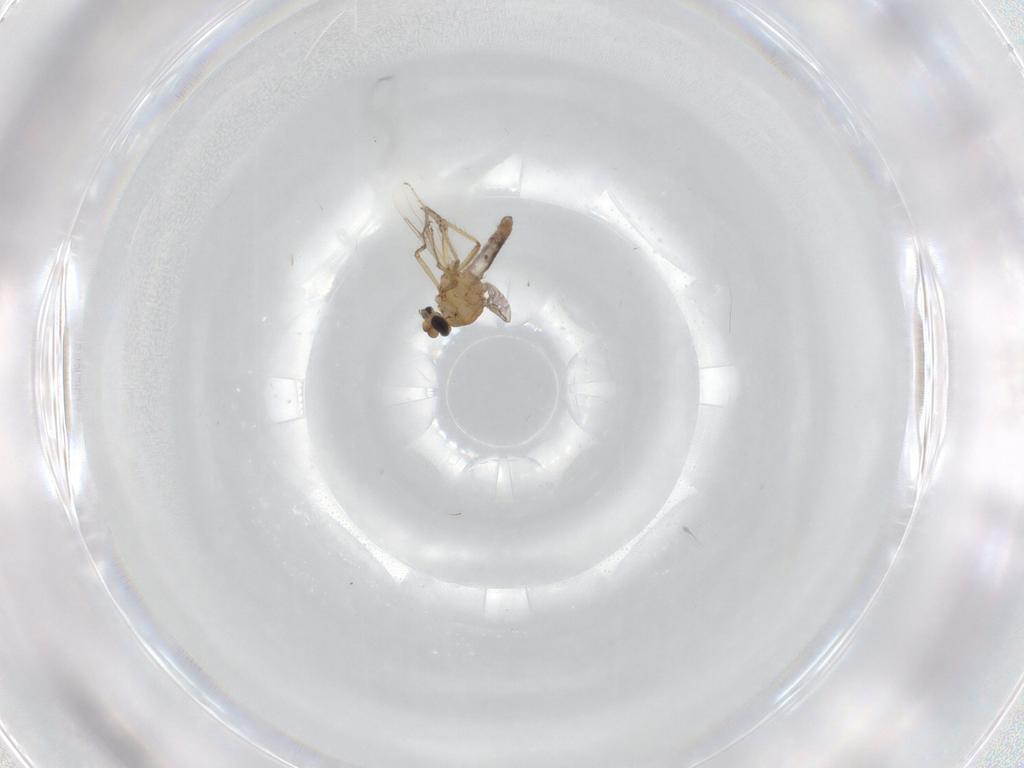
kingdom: Animalia
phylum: Arthropoda
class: Insecta
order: Diptera
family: Ceratopogonidae
